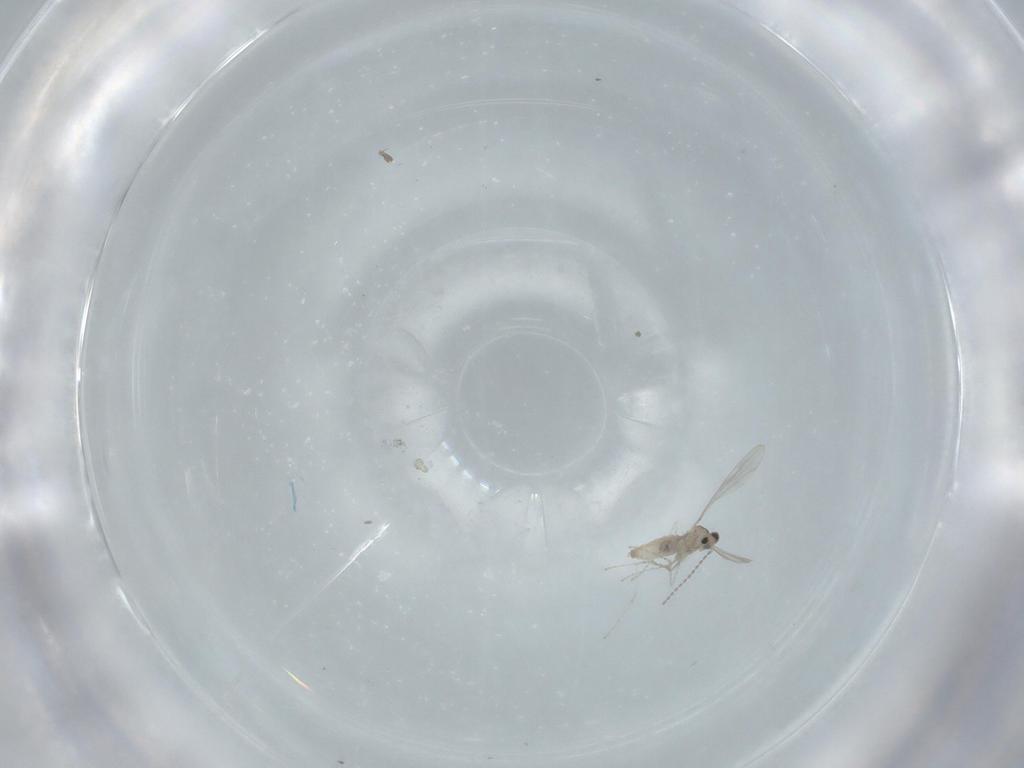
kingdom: Animalia
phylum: Arthropoda
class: Insecta
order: Diptera
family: Cecidomyiidae
